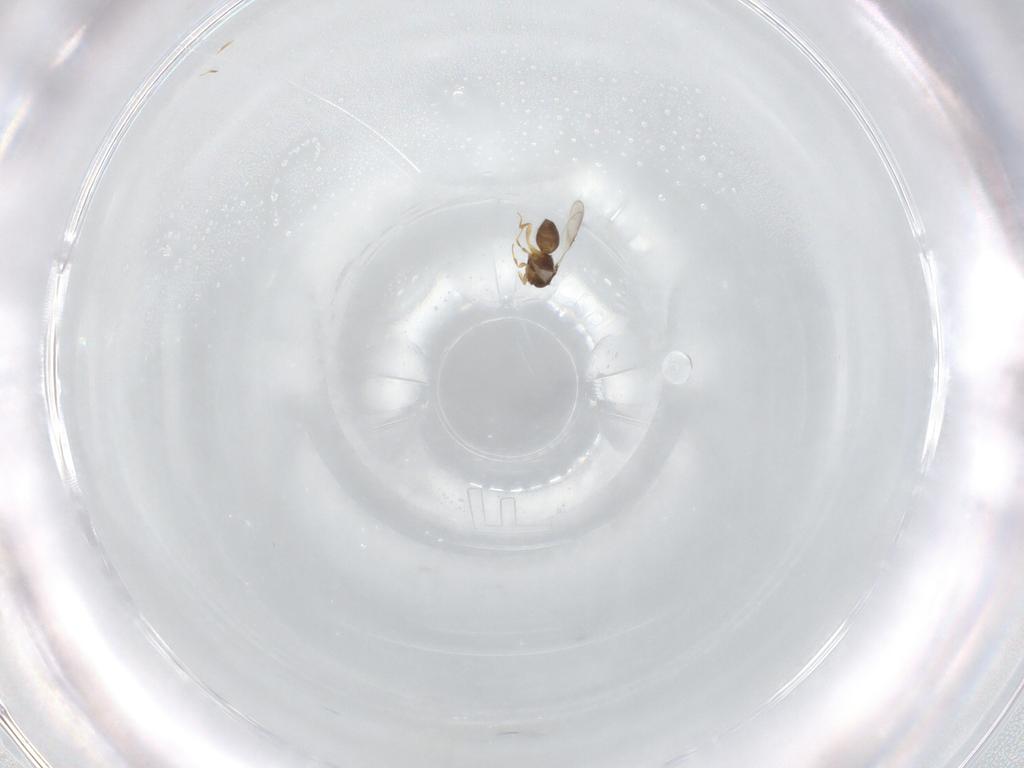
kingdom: Animalia
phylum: Arthropoda
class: Insecta
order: Hymenoptera
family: Ceraphronidae
